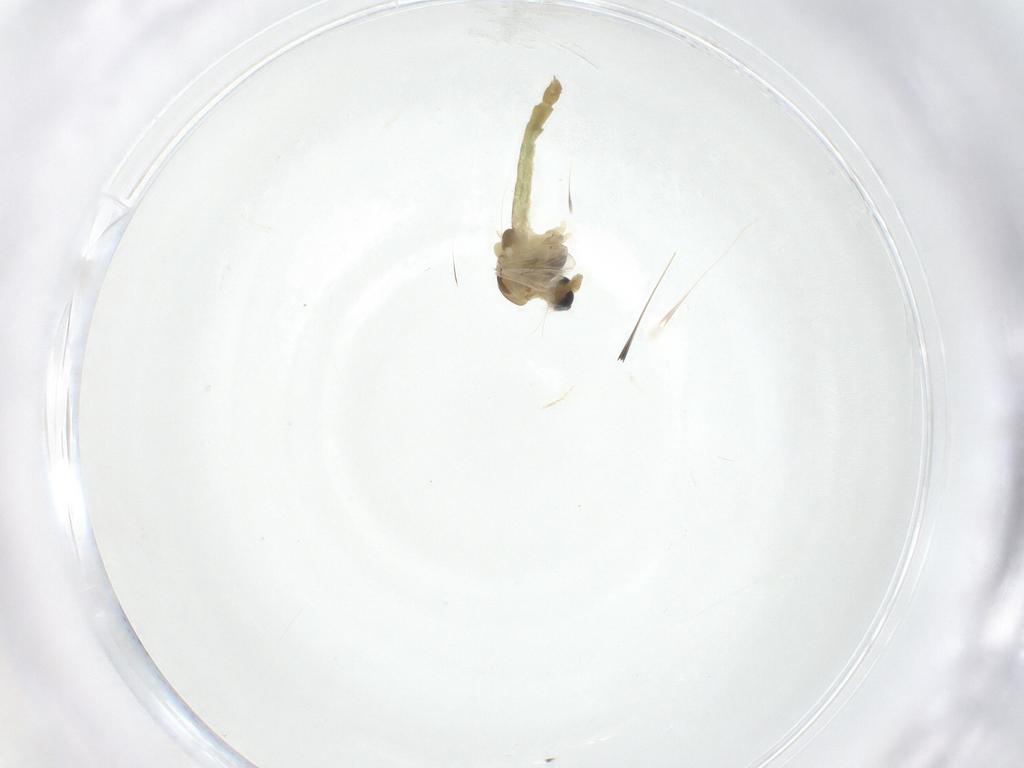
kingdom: Animalia
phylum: Arthropoda
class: Insecta
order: Diptera
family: Chironomidae
